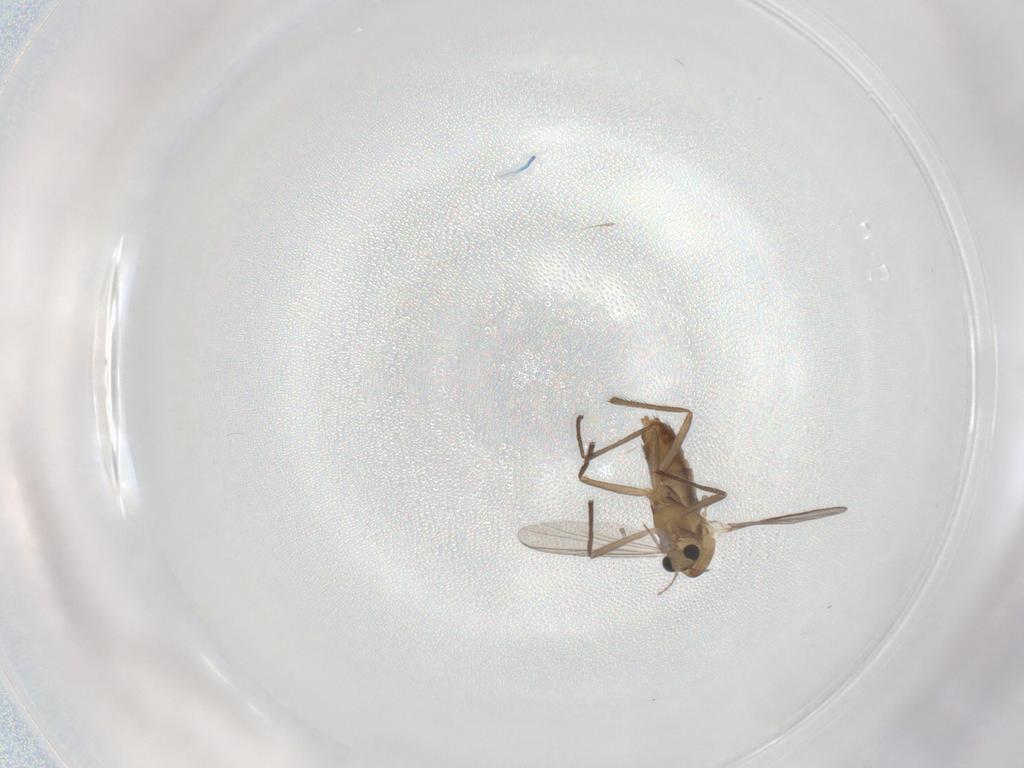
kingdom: Animalia
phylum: Arthropoda
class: Insecta
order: Diptera
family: Chironomidae
